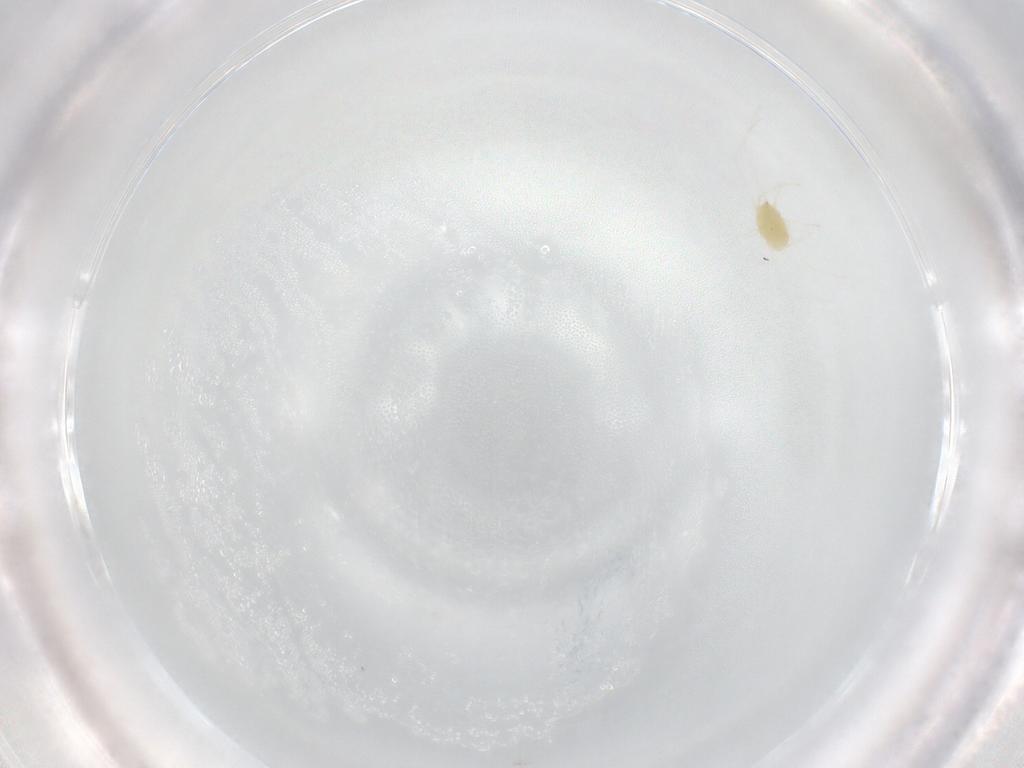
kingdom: Animalia
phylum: Arthropoda
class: Arachnida
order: Trombidiformes
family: Tetranychidae
